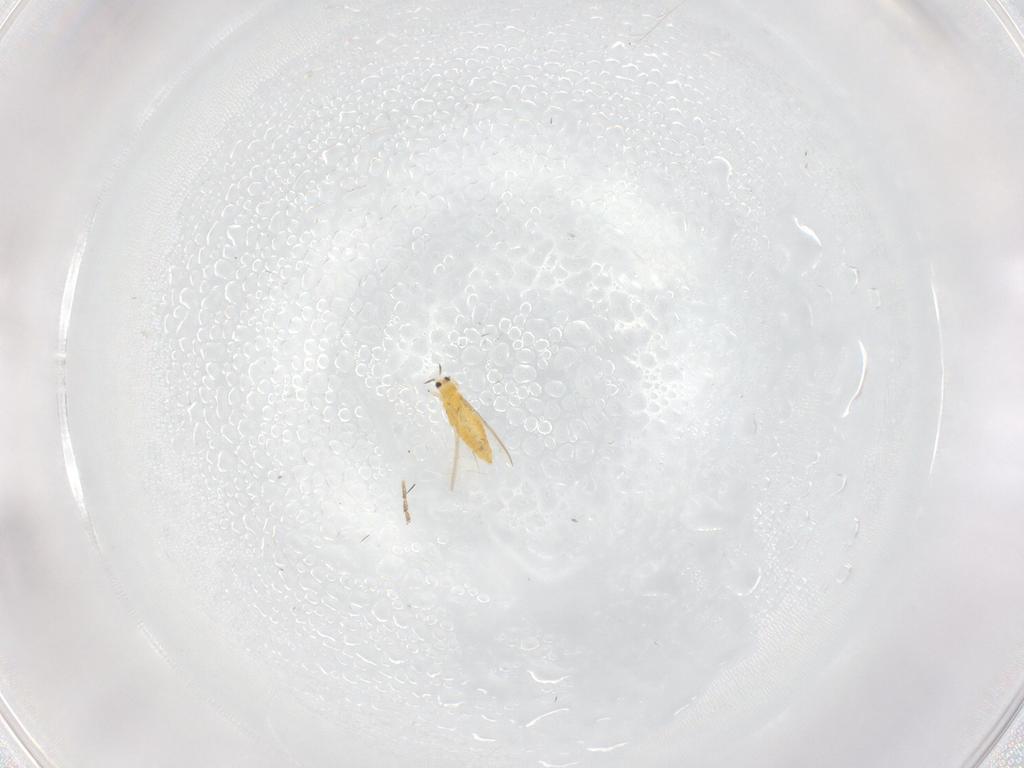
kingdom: Animalia
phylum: Arthropoda
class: Insecta
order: Thysanoptera
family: Thripidae
